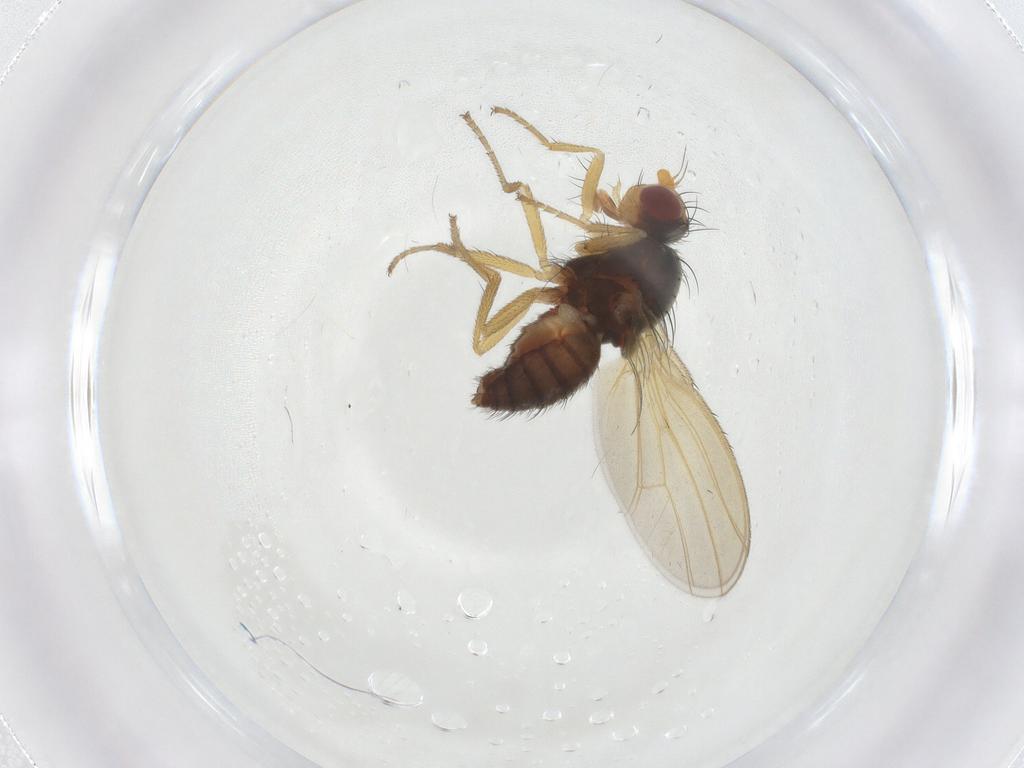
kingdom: Animalia
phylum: Arthropoda
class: Insecta
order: Diptera
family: Heleomyzidae
